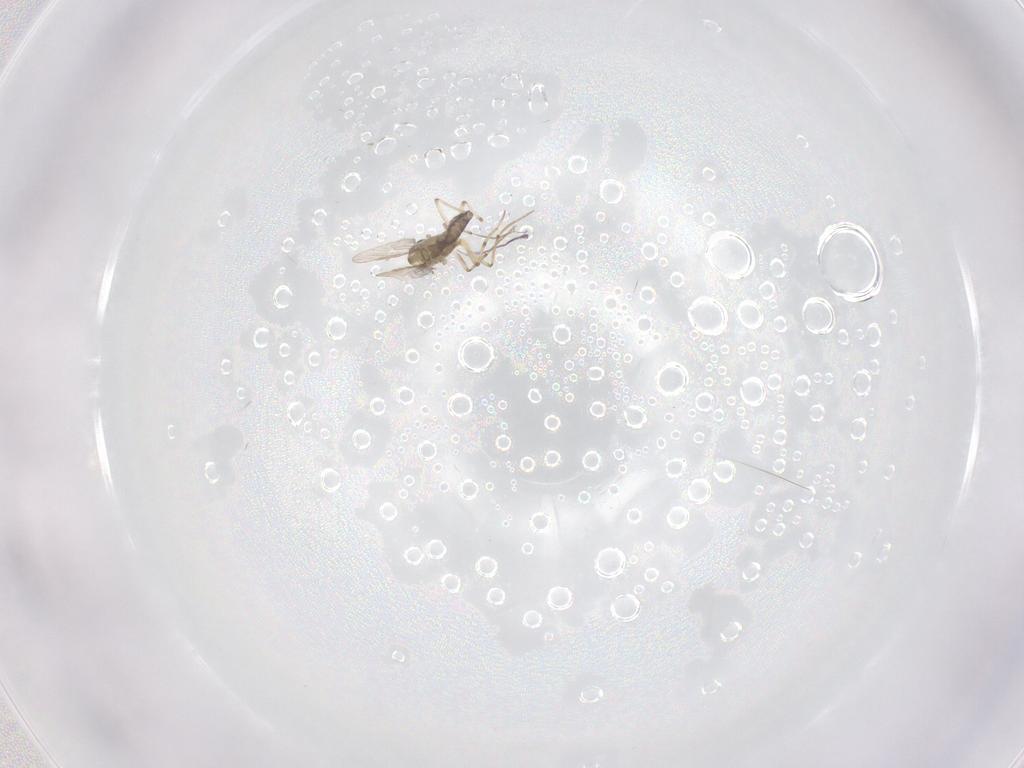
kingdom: Animalia
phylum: Arthropoda
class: Insecta
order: Diptera
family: Chironomidae
